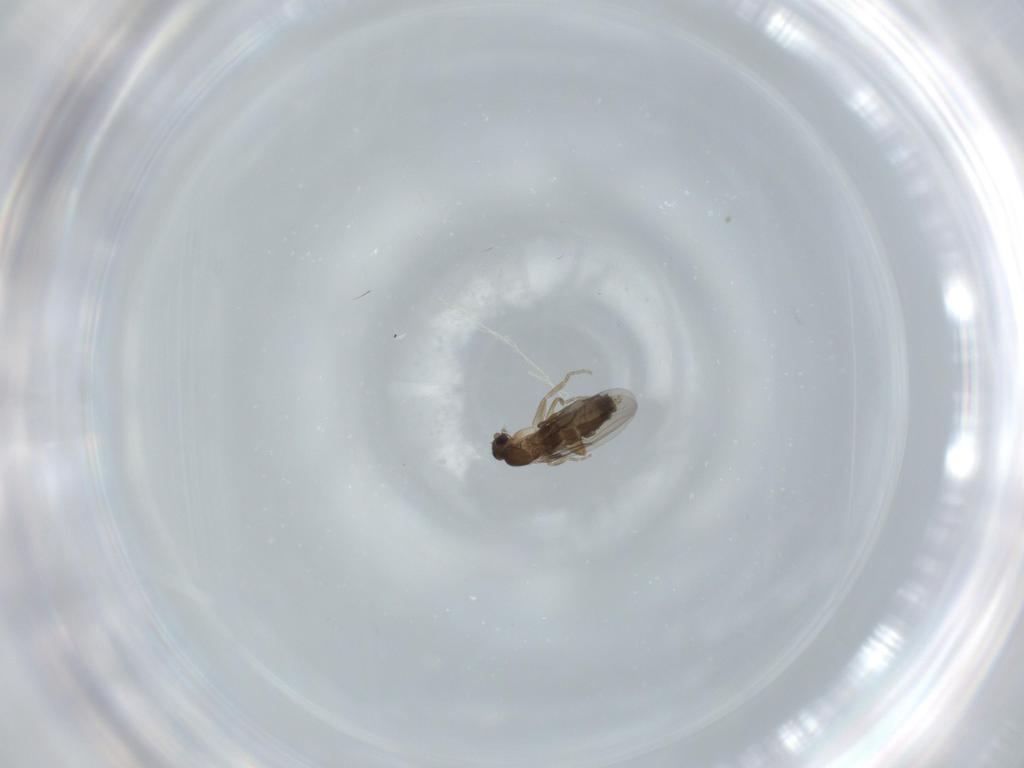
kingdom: Animalia
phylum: Arthropoda
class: Insecta
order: Diptera
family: Phoridae
